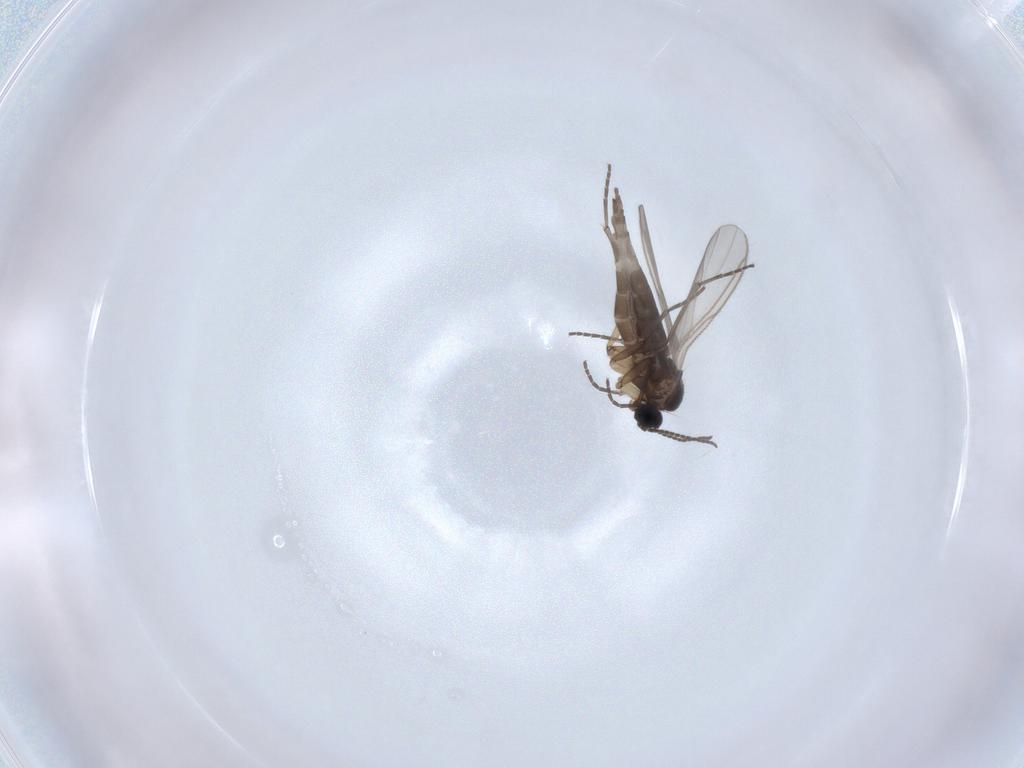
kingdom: Animalia
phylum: Arthropoda
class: Insecta
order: Diptera
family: Sciaridae
